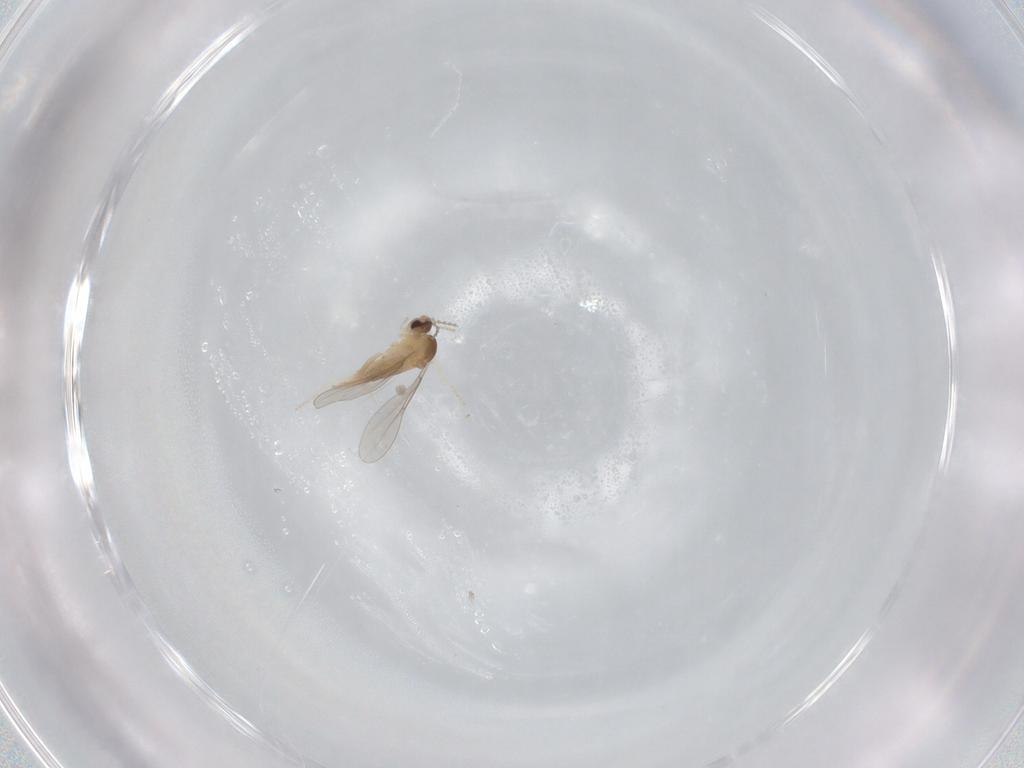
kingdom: Animalia
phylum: Arthropoda
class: Insecta
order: Diptera
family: Cecidomyiidae
